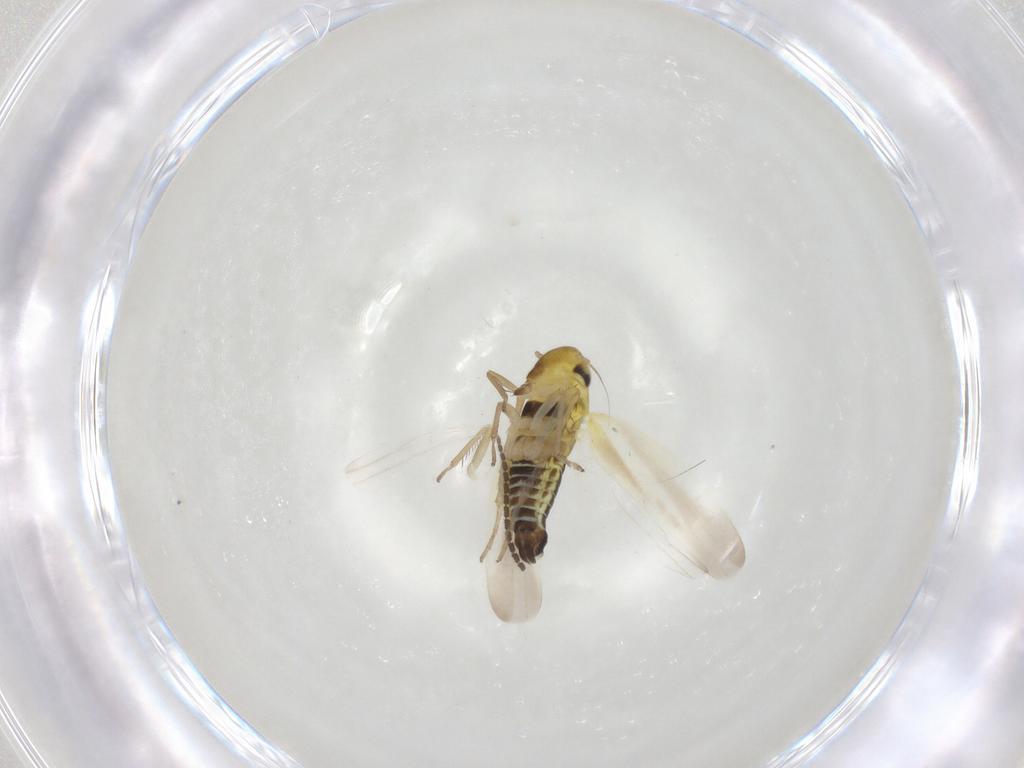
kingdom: Animalia
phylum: Arthropoda
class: Insecta
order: Hemiptera
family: Cicadellidae
